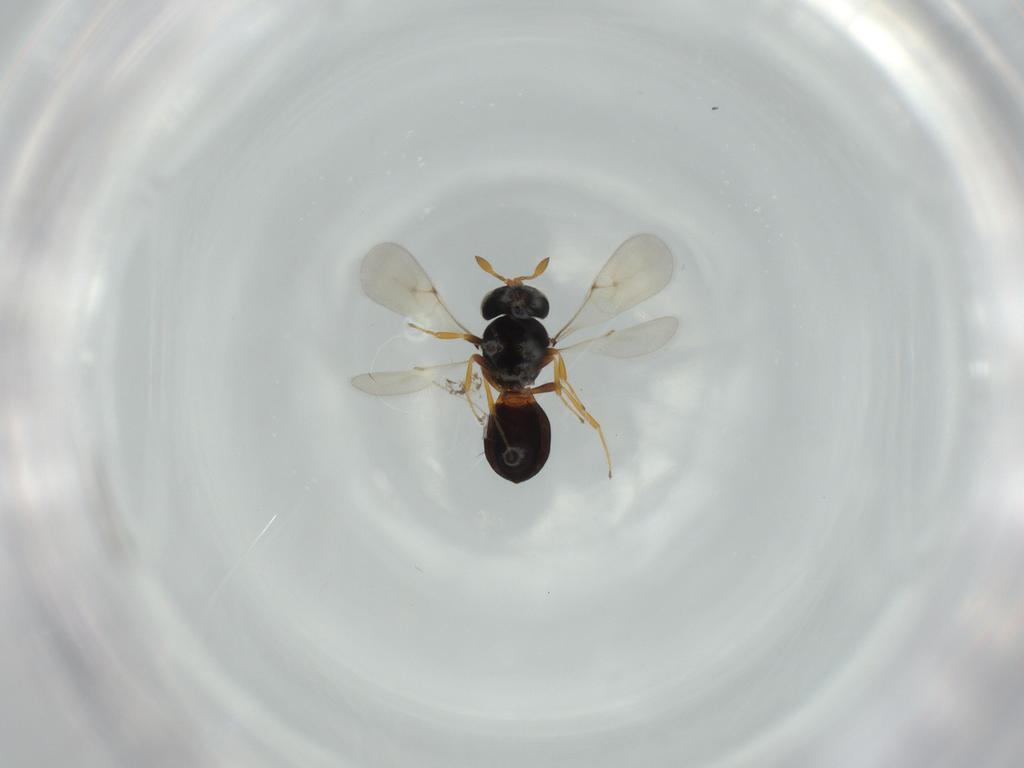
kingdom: Animalia
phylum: Arthropoda
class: Insecta
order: Hymenoptera
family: Scelionidae
